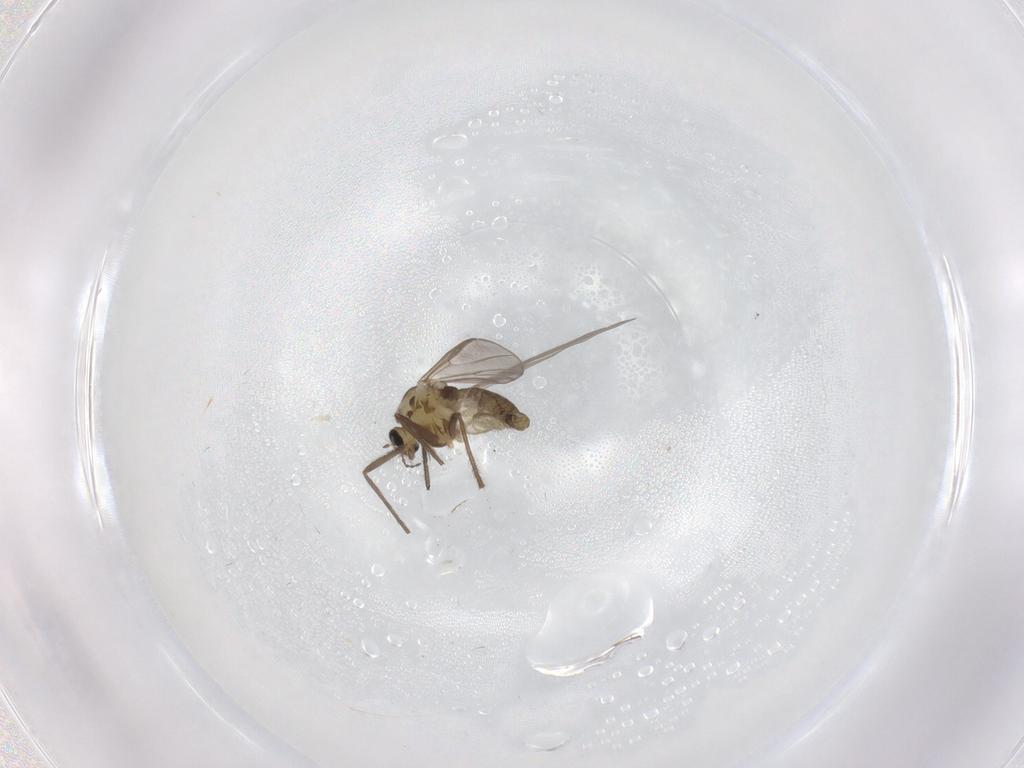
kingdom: Animalia
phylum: Arthropoda
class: Insecta
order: Diptera
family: Chironomidae
